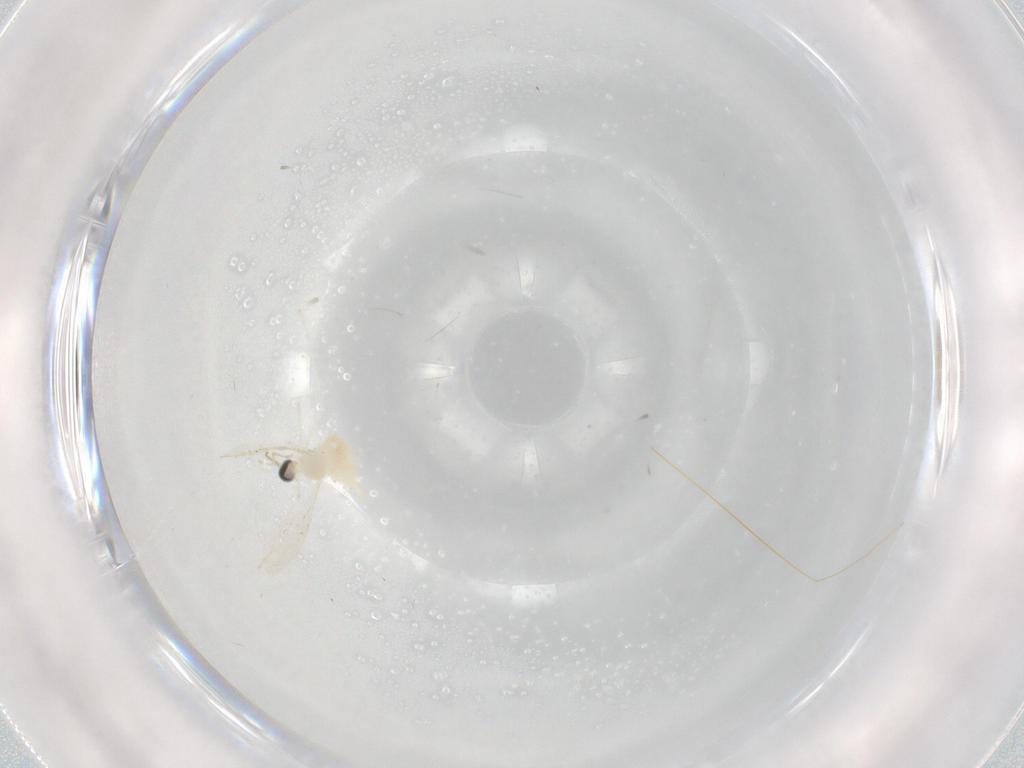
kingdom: Animalia
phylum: Arthropoda
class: Insecta
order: Diptera
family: Cecidomyiidae
